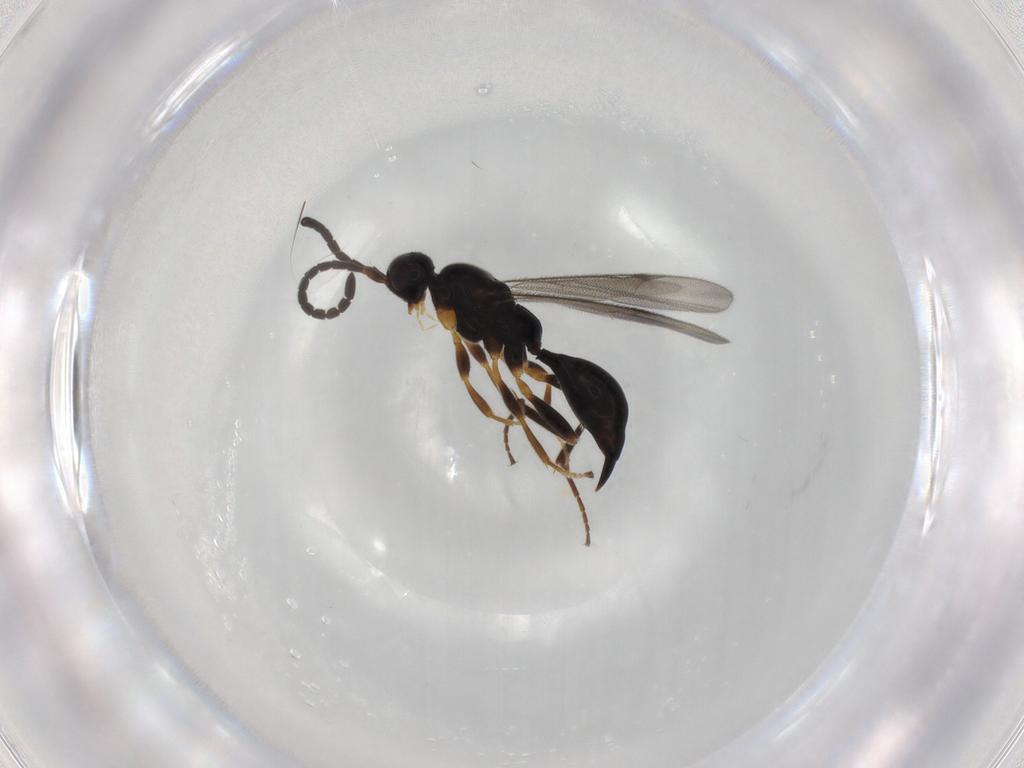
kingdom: Animalia
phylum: Arthropoda
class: Insecta
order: Hymenoptera
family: Proctotrupidae
